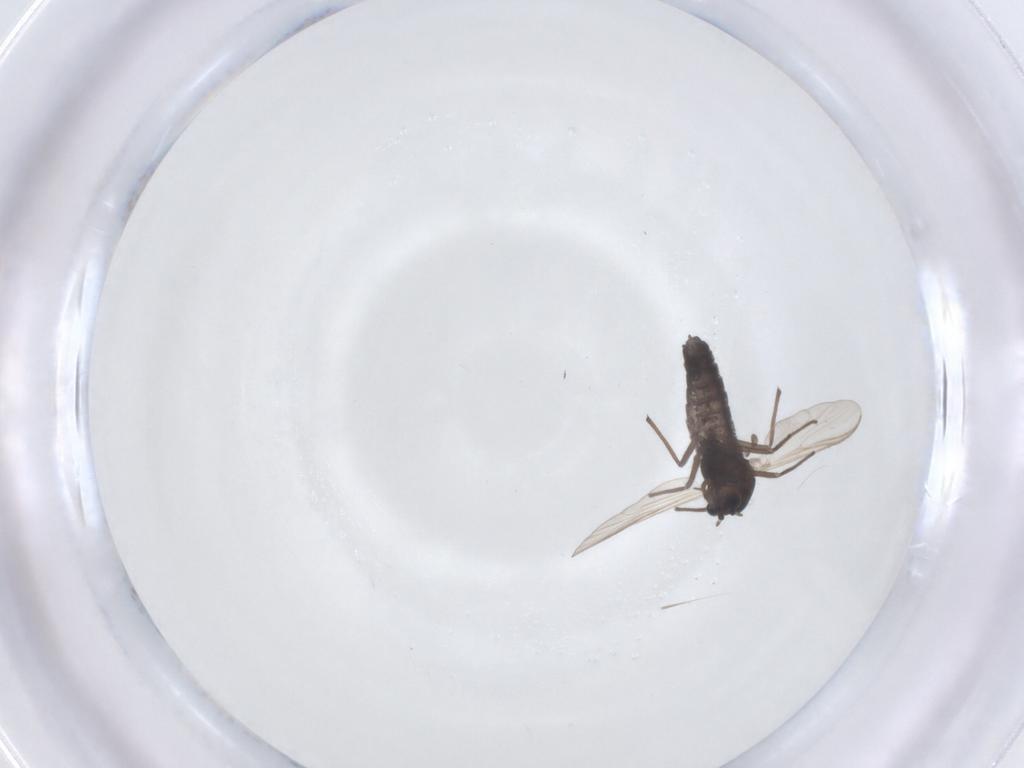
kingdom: Animalia
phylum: Arthropoda
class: Insecta
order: Diptera
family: Chironomidae
